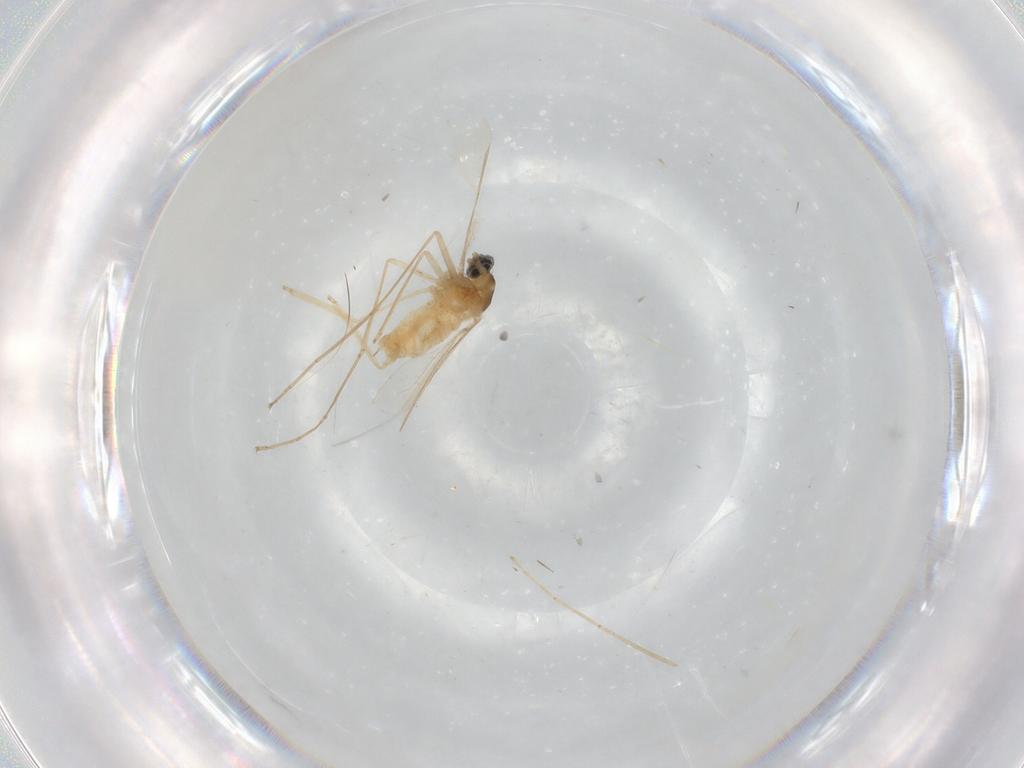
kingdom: Animalia
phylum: Arthropoda
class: Insecta
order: Diptera
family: Cecidomyiidae
